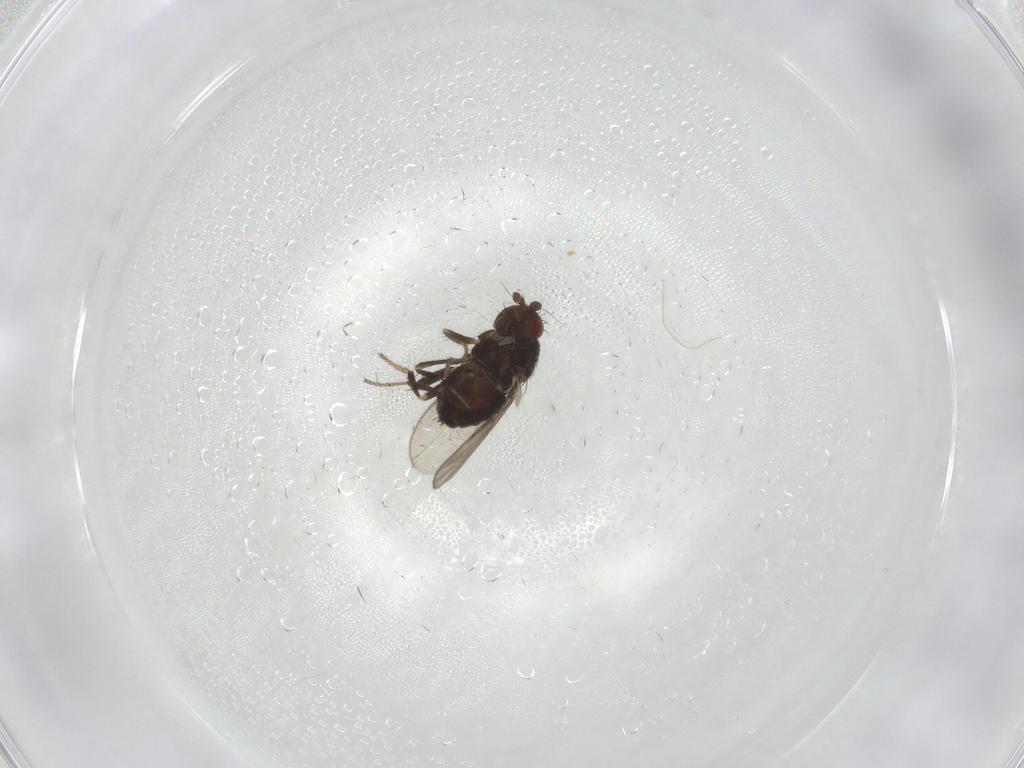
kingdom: Animalia
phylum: Arthropoda
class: Insecta
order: Diptera
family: Sphaeroceridae
